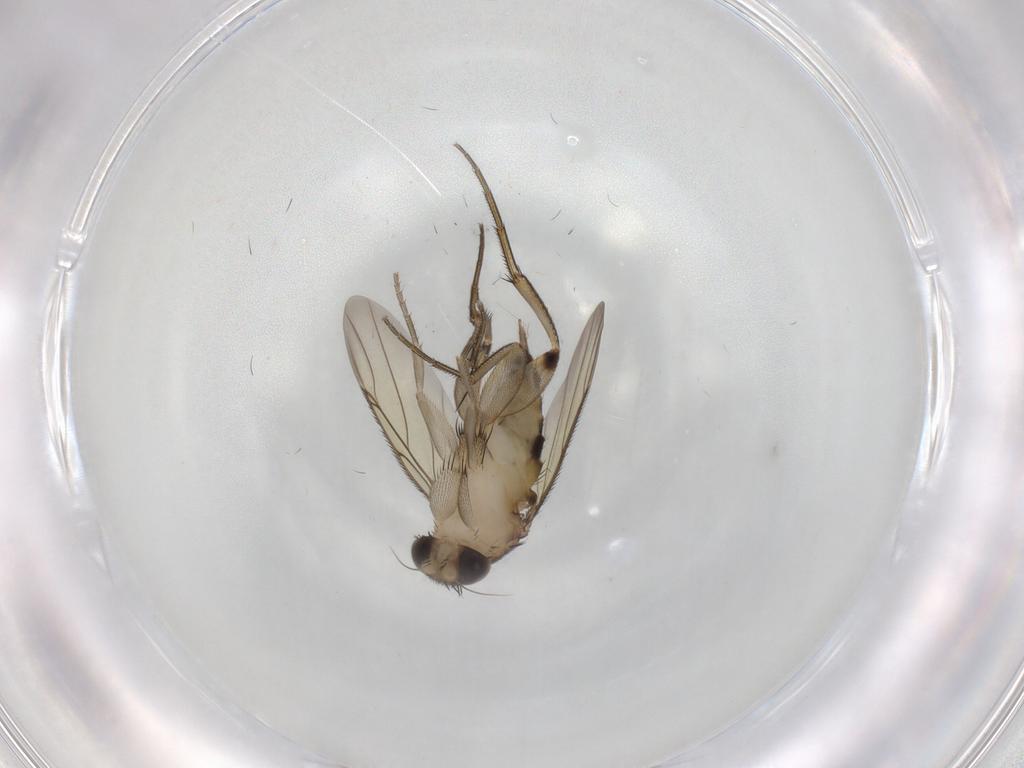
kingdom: Animalia
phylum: Arthropoda
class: Insecta
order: Diptera
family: Phoridae
